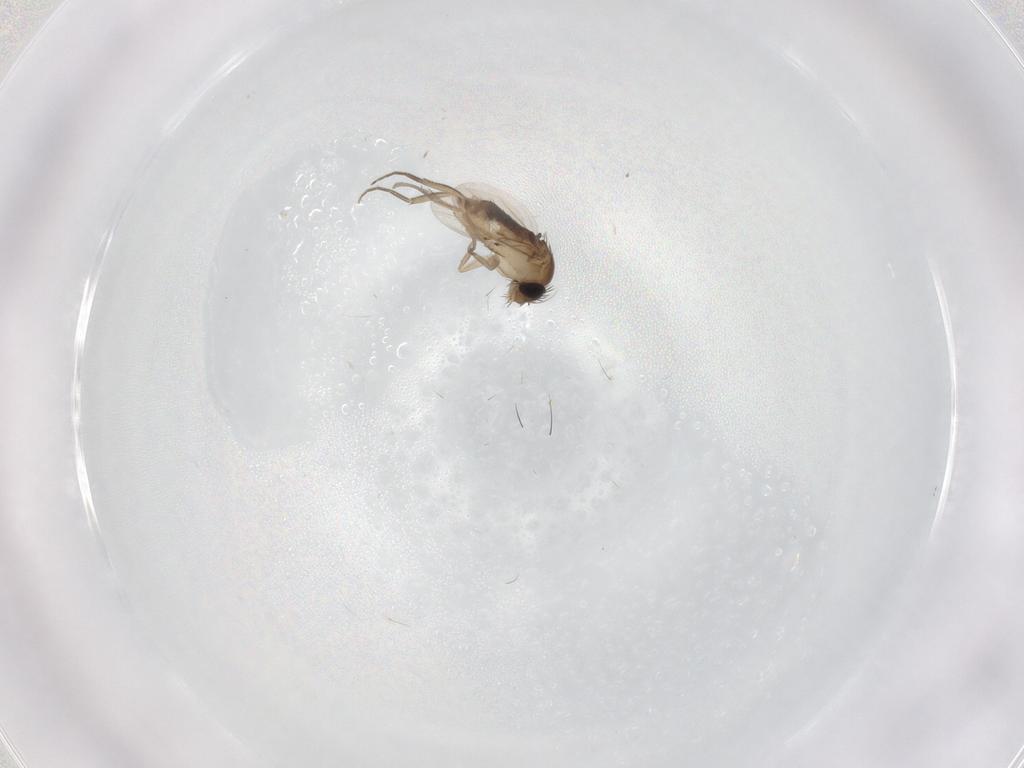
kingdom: Animalia
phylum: Arthropoda
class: Insecta
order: Diptera
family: Phoridae
